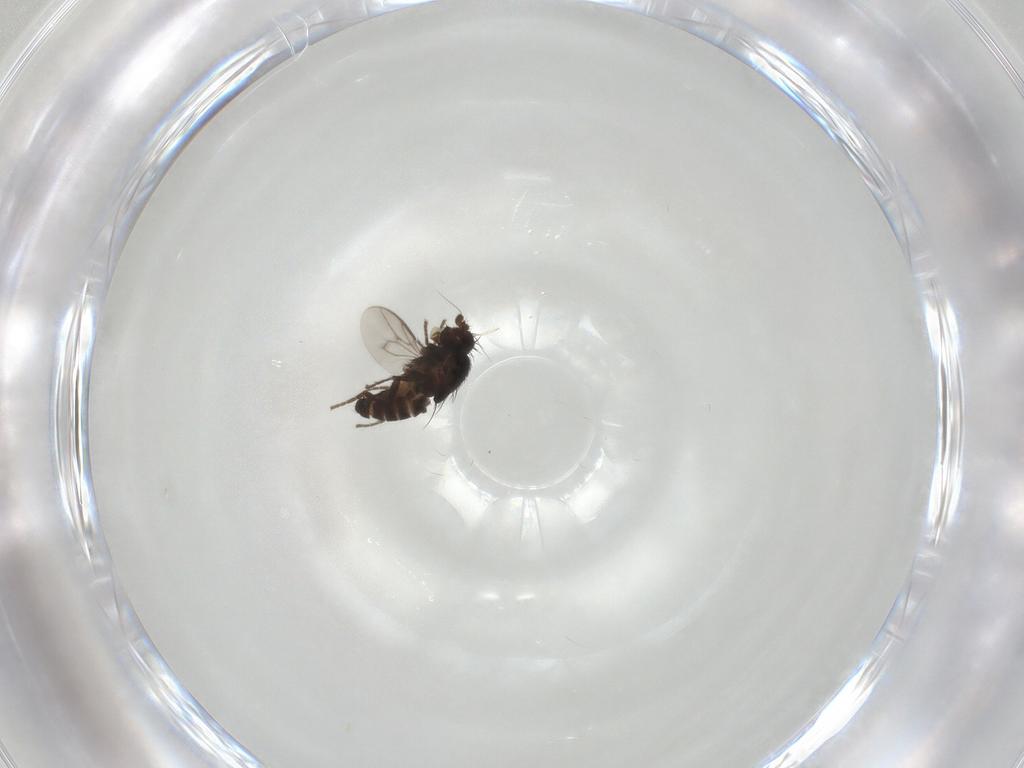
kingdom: Animalia
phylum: Arthropoda
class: Insecta
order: Diptera
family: Sphaeroceridae
